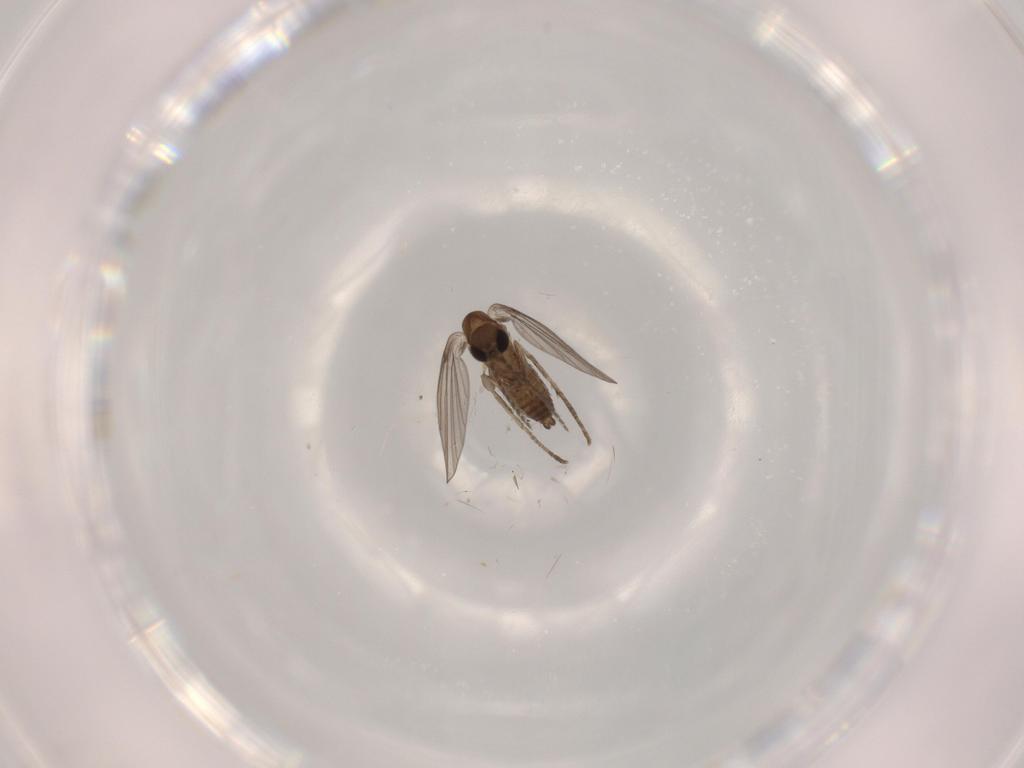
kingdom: Animalia
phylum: Arthropoda
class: Insecta
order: Diptera
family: Psychodidae
